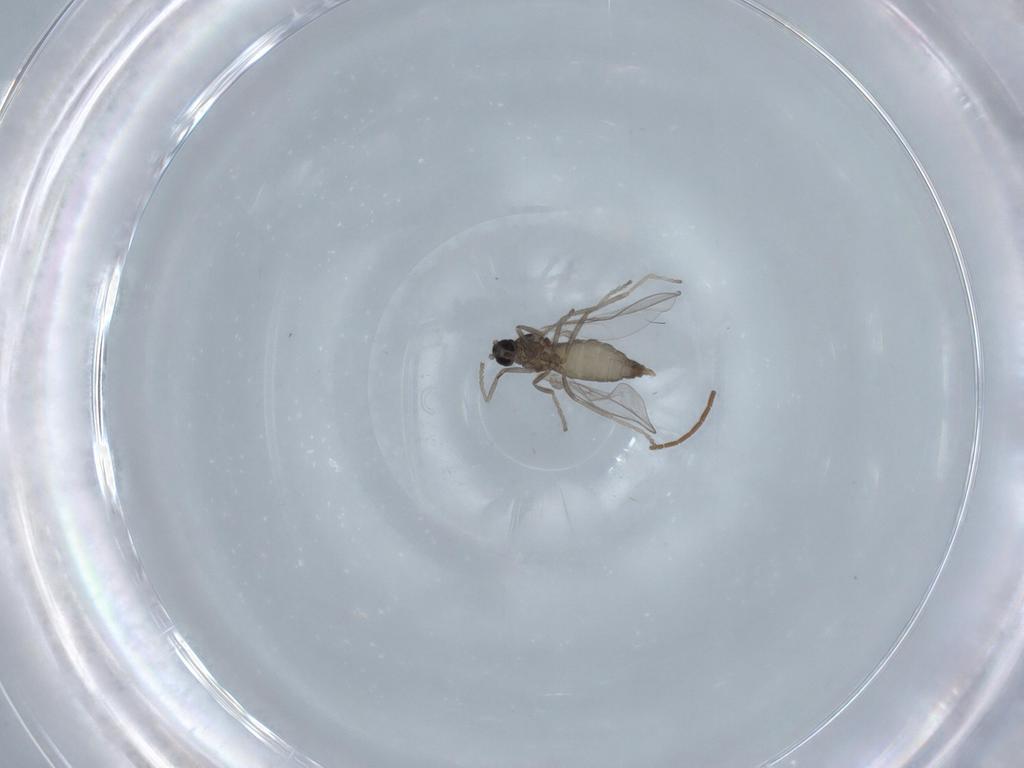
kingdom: Animalia
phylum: Arthropoda
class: Insecta
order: Diptera
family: Cecidomyiidae
